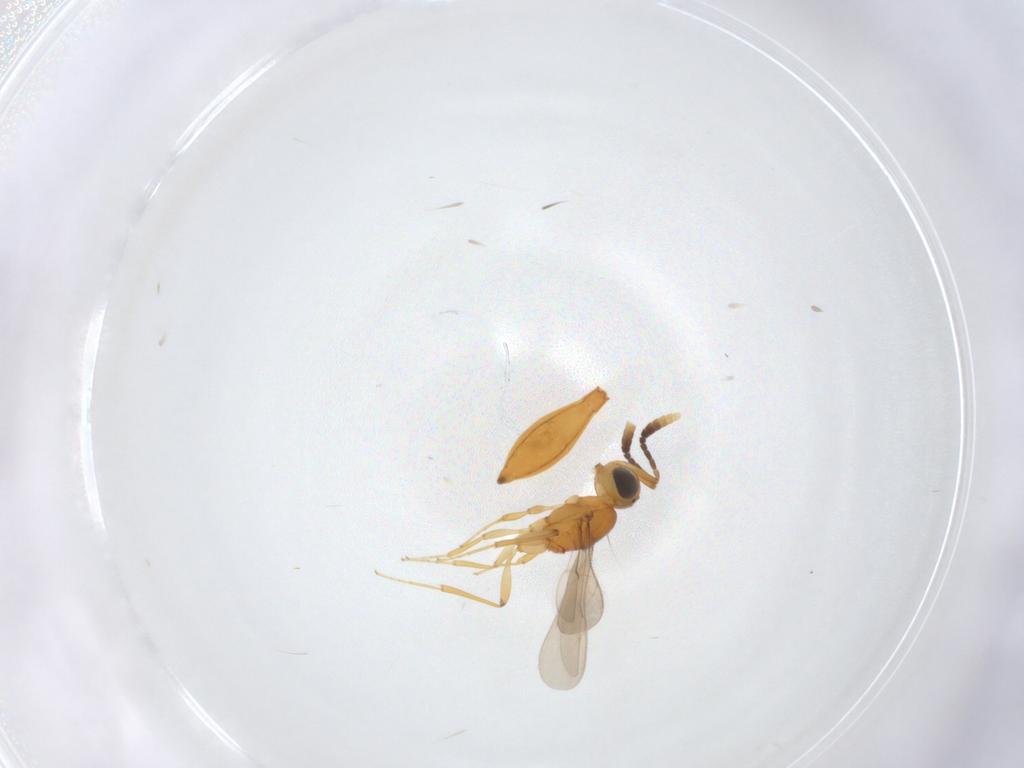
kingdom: Animalia
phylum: Arthropoda
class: Insecta
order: Hymenoptera
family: Scelionidae
